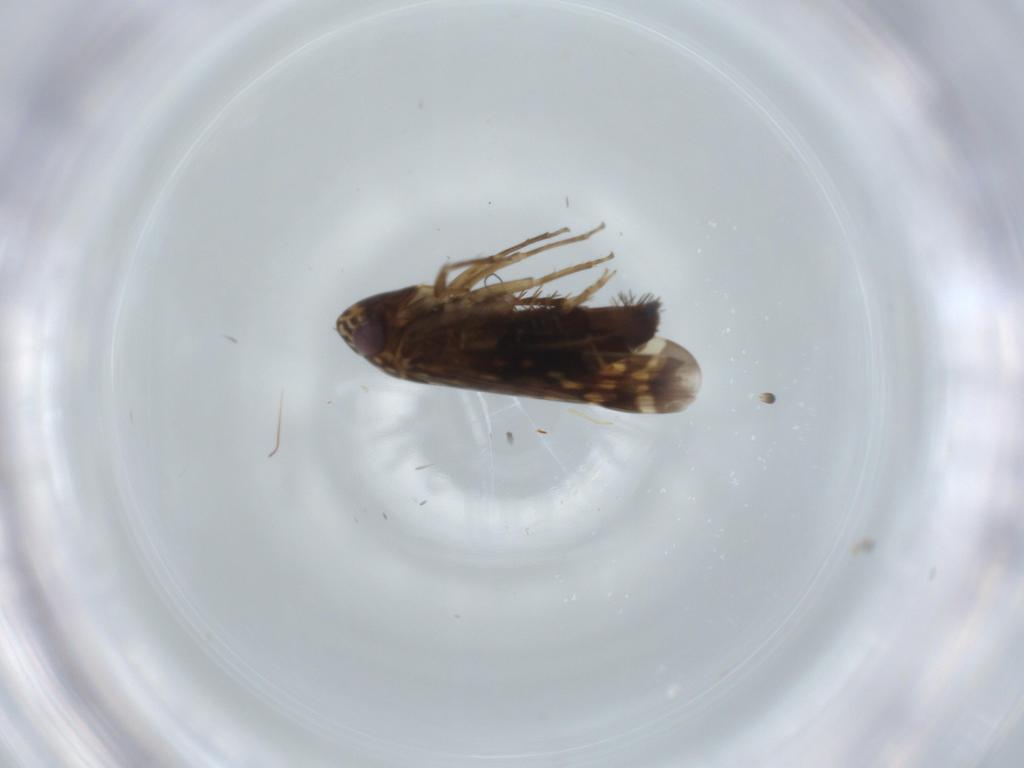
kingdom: Animalia
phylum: Arthropoda
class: Insecta
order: Hemiptera
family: Cicadellidae
